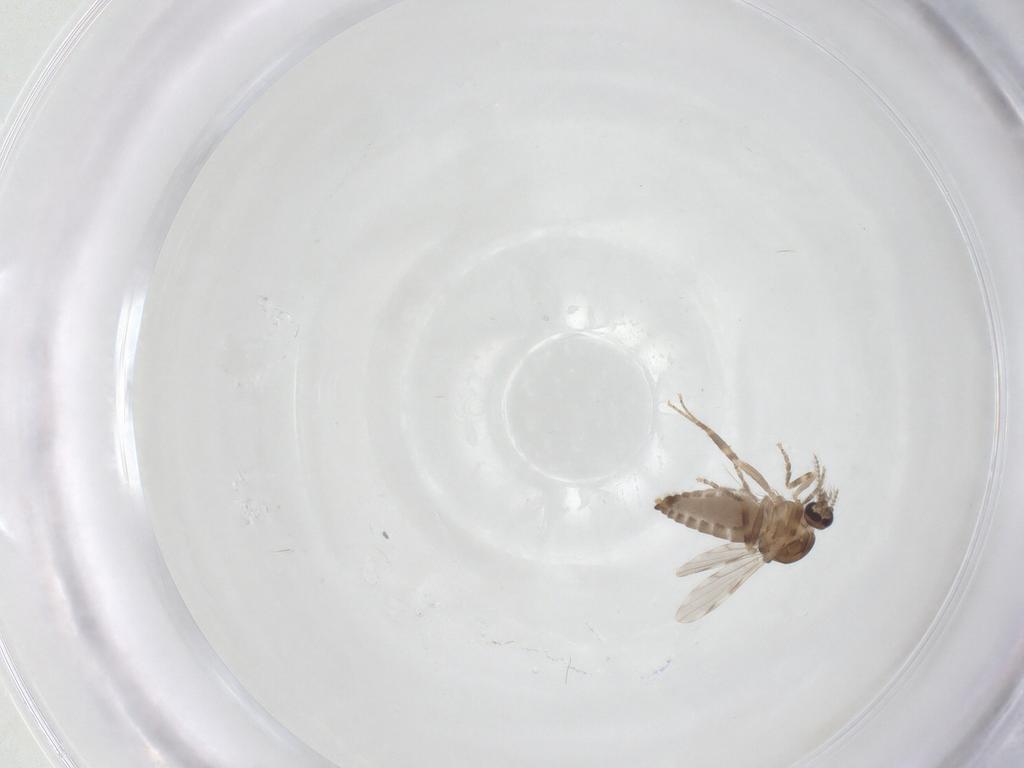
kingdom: Animalia
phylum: Arthropoda
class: Insecta
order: Diptera
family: Ceratopogonidae
